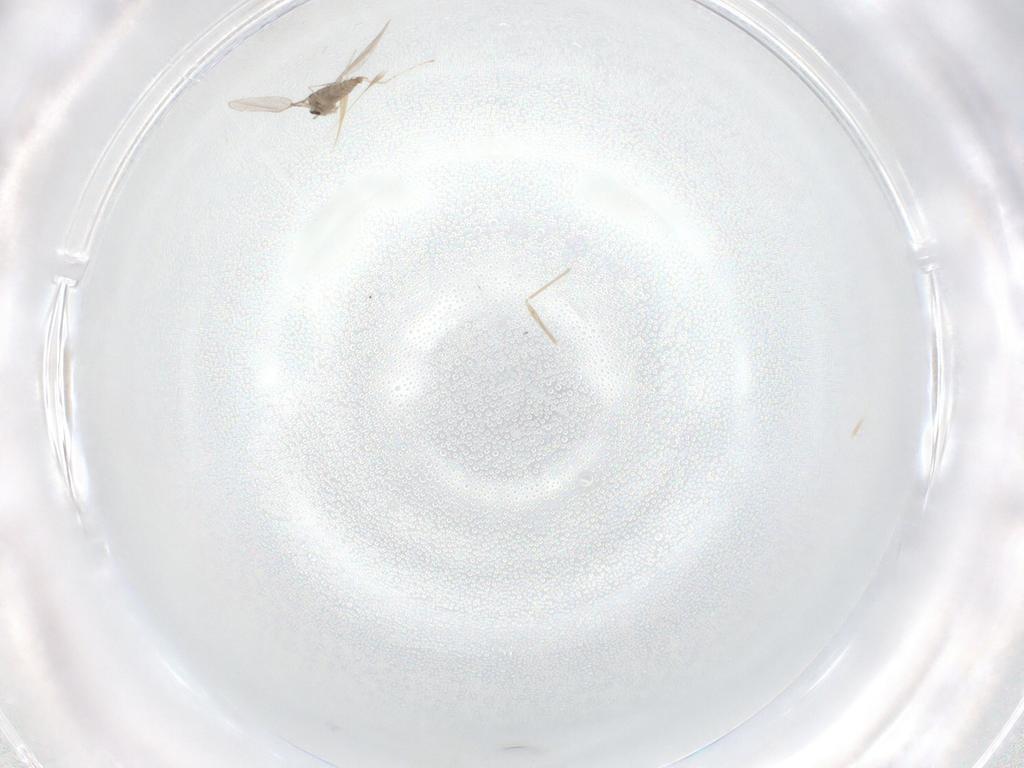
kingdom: Animalia
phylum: Arthropoda
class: Insecta
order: Diptera
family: Cecidomyiidae
